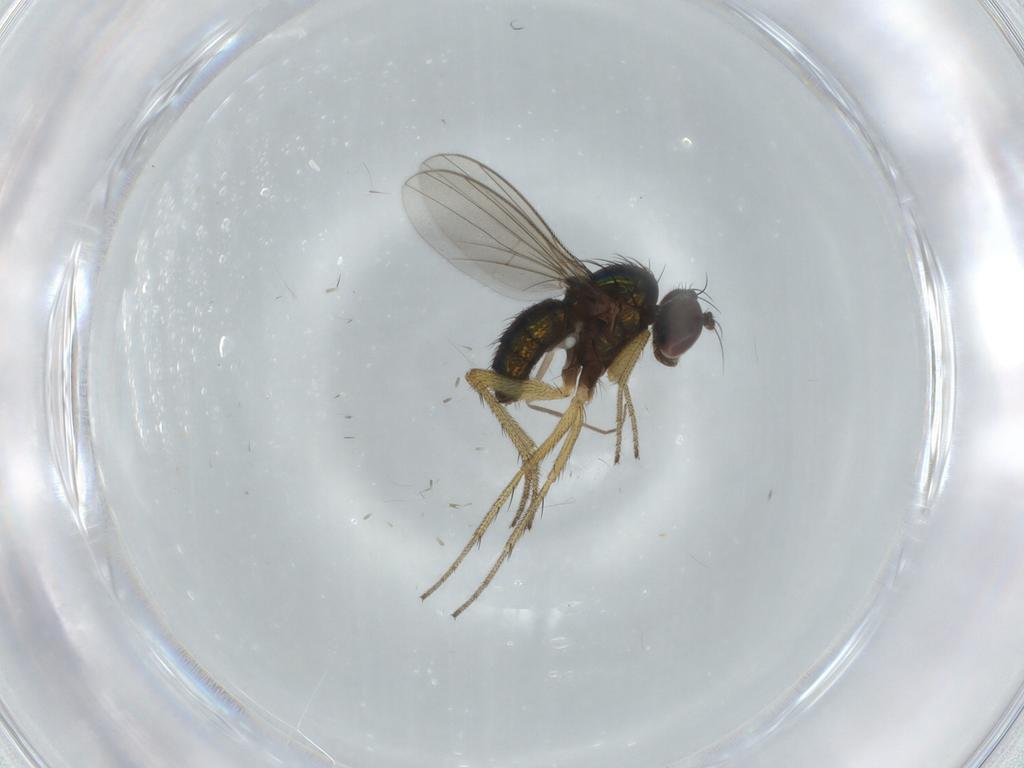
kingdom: Animalia
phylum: Arthropoda
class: Insecta
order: Diptera
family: Dolichopodidae
